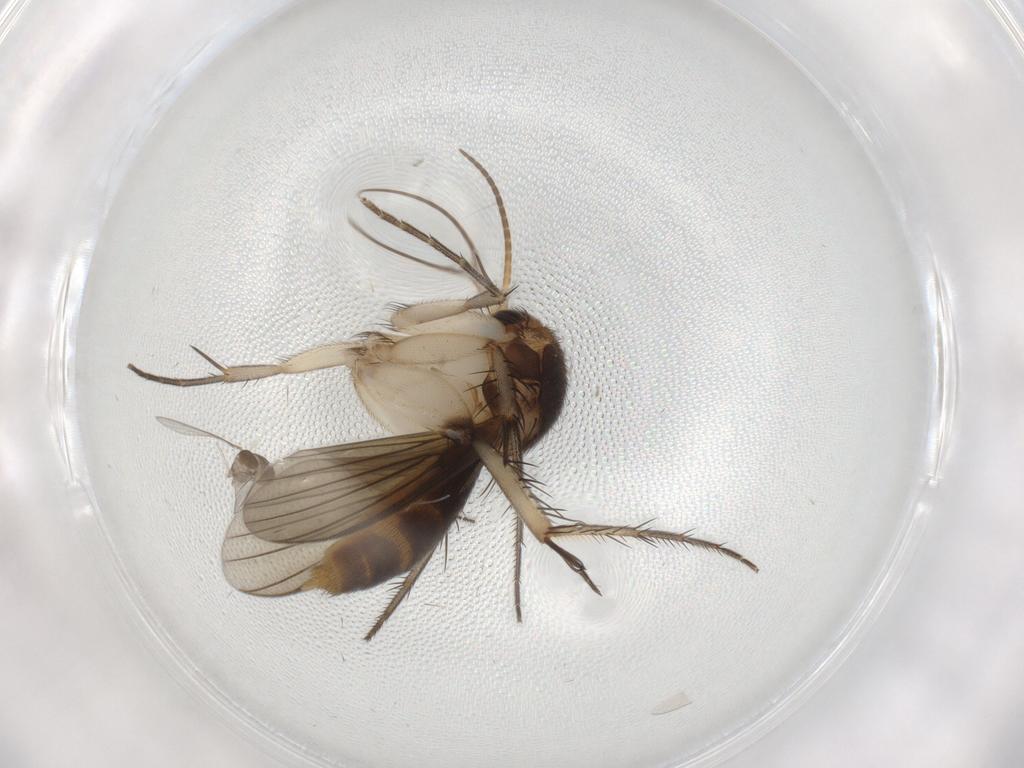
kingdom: Animalia
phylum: Arthropoda
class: Insecta
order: Diptera
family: Mycetophilidae
